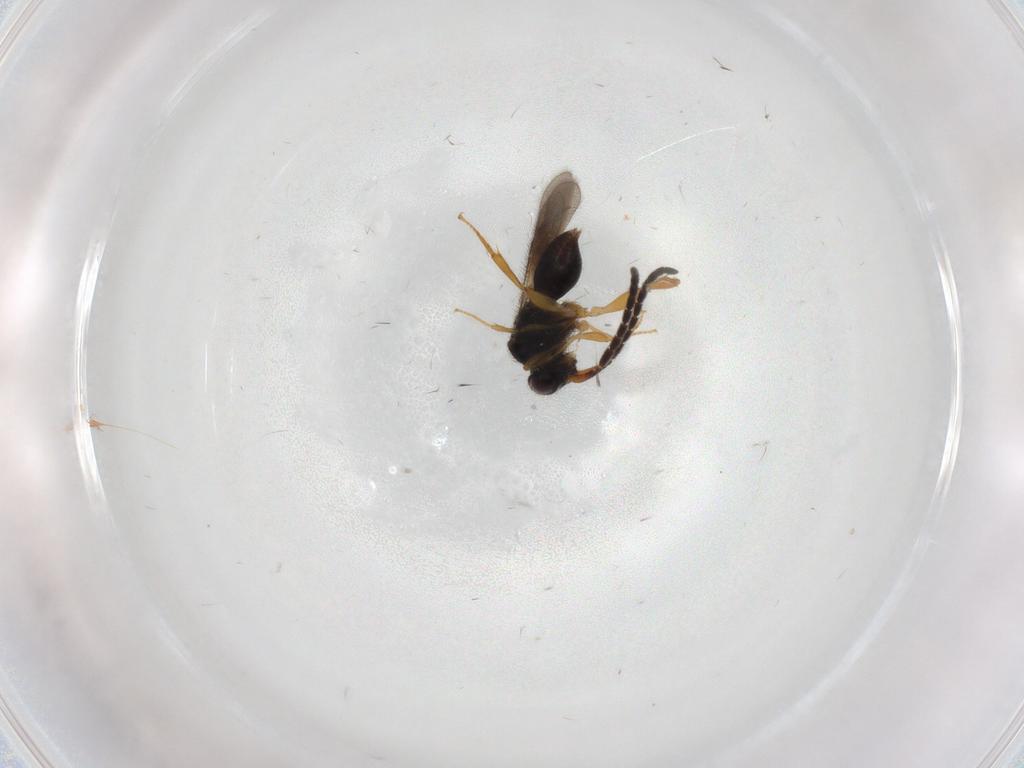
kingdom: Animalia
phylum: Arthropoda
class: Insecta
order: Hymenoptera
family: Ceraphronidae
